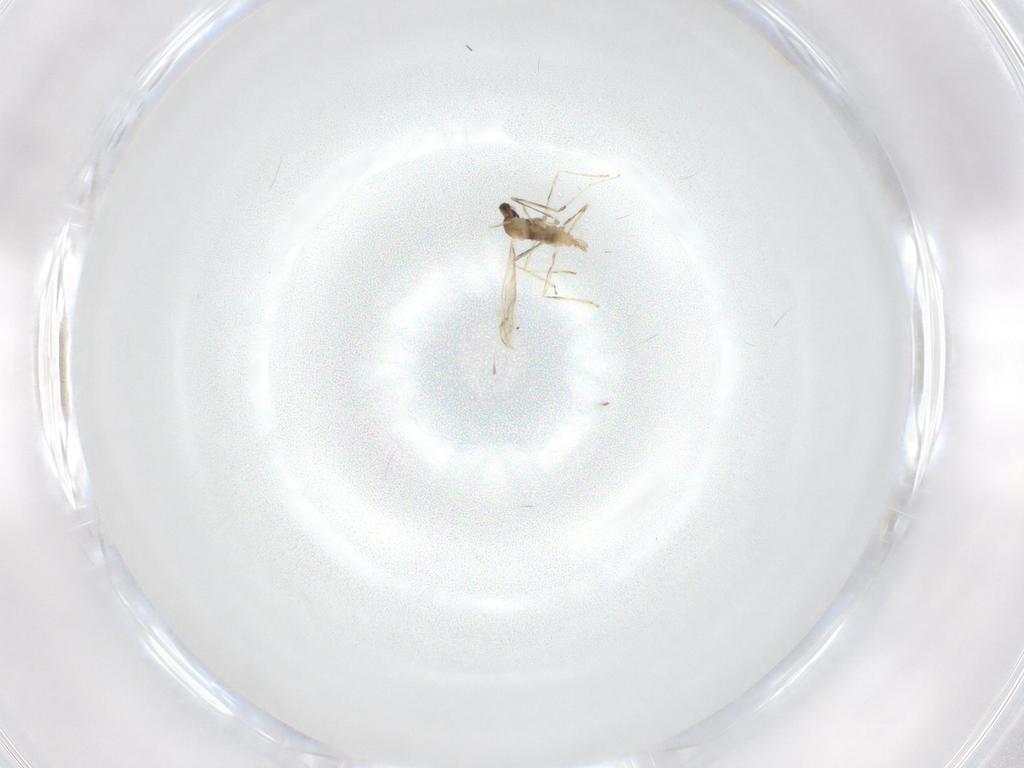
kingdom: Animalia
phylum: Arthropoda
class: Insecta
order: Diptera
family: Cecidomyiidae
